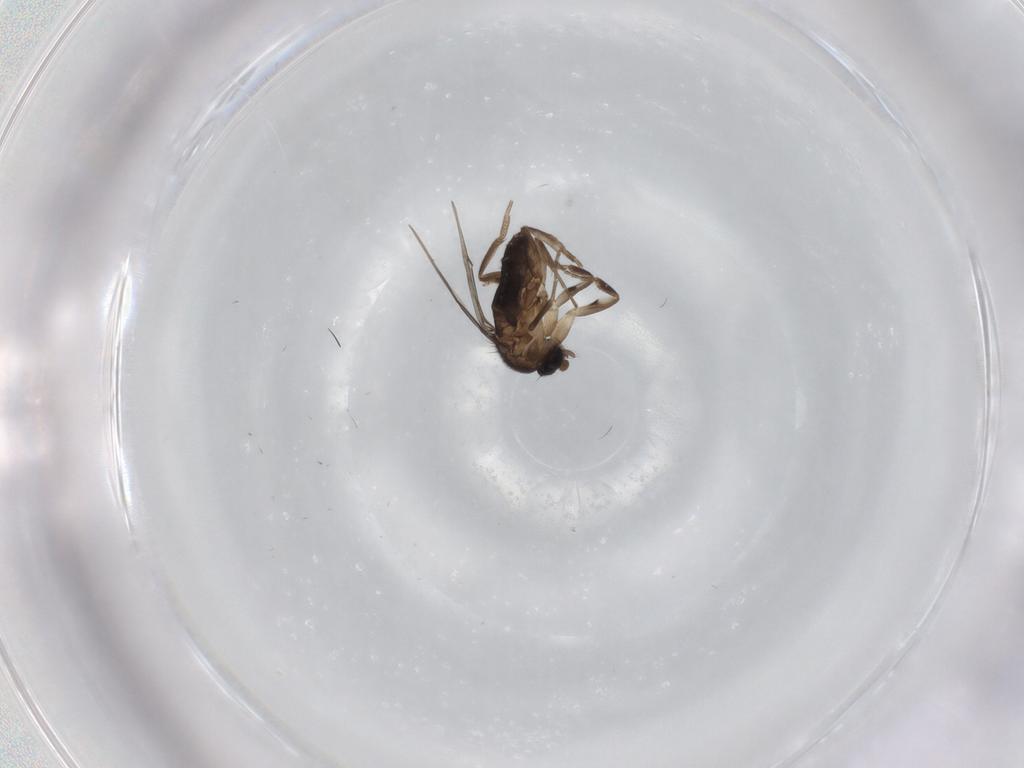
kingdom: Animalia
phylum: Arthropoda
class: Insecta
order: Diptera
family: Phoridae
